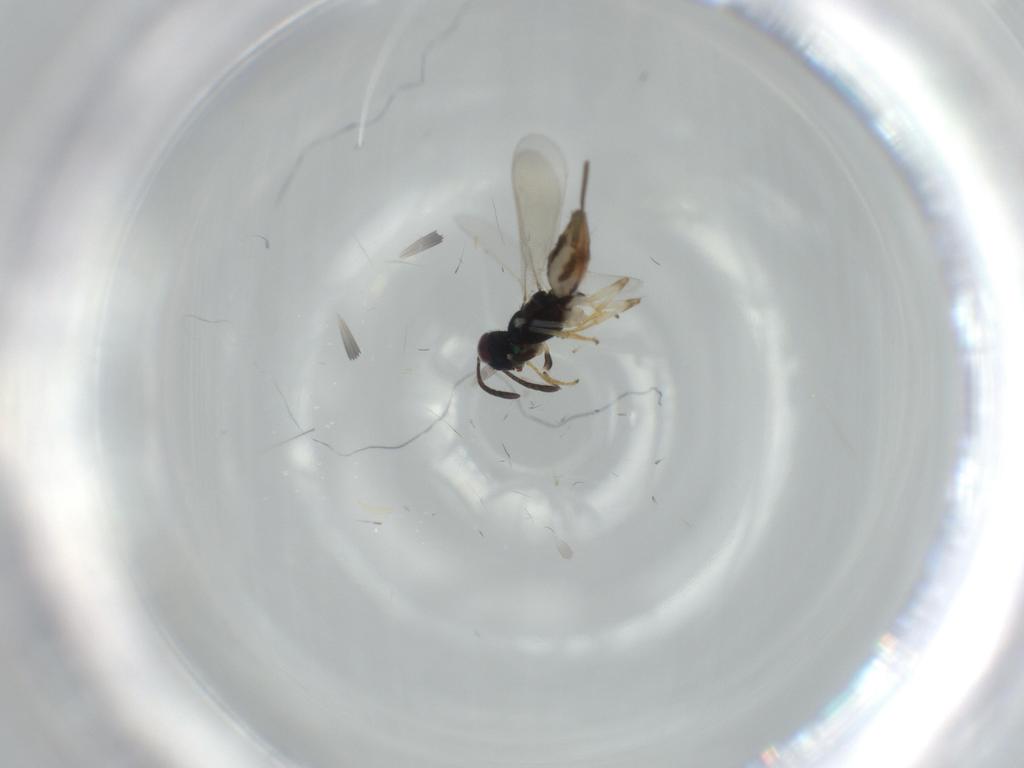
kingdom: Animalia
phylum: Arthropoda
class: Insecta
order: Hymenoptera
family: Eupelmidae
